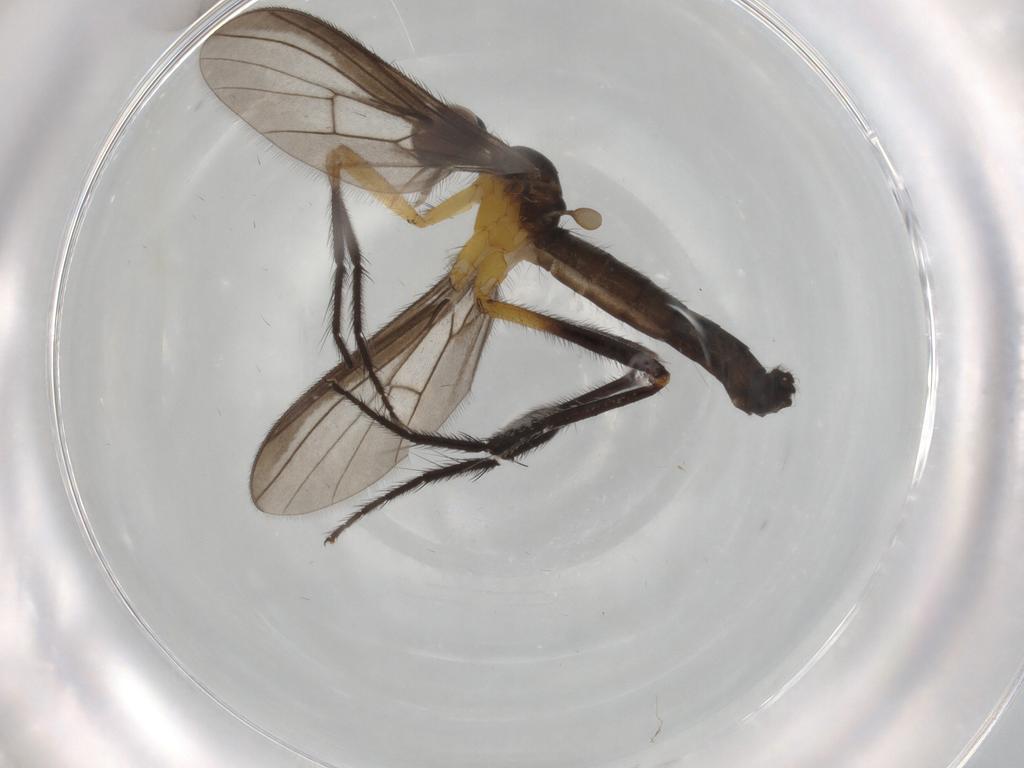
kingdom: Animalia
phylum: Arthropoda
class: Insecta
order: Diptera
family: Empididae
